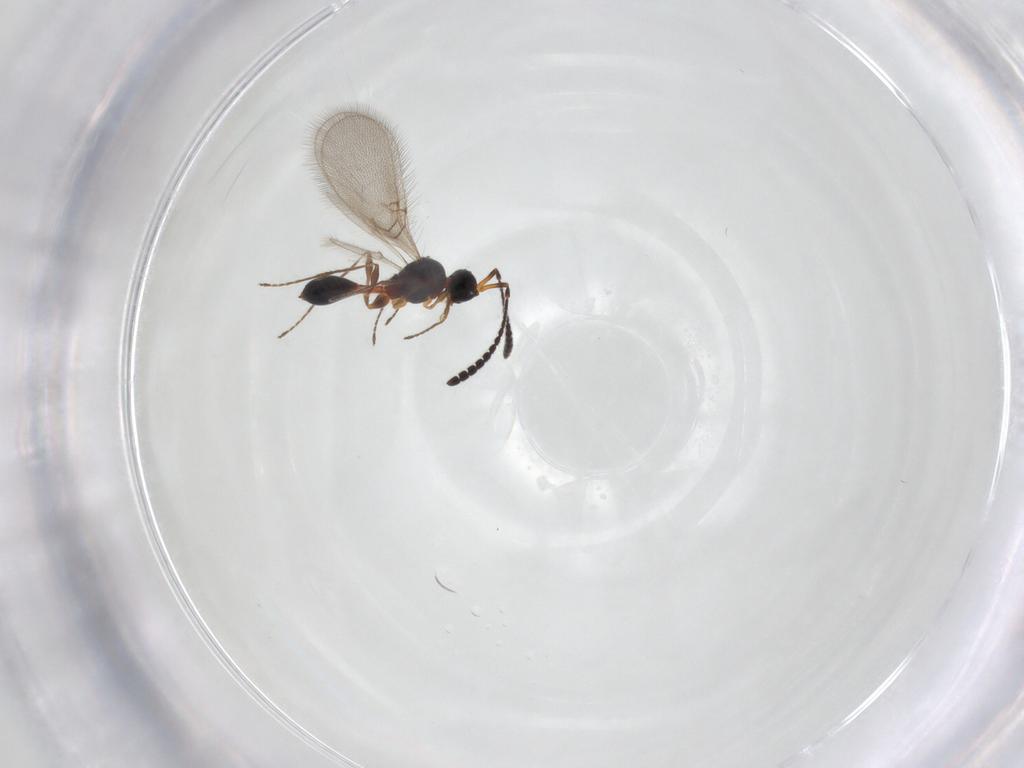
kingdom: Animalia
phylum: Arthropoda
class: Insecta
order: Hymenoptera
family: Diapriidae
